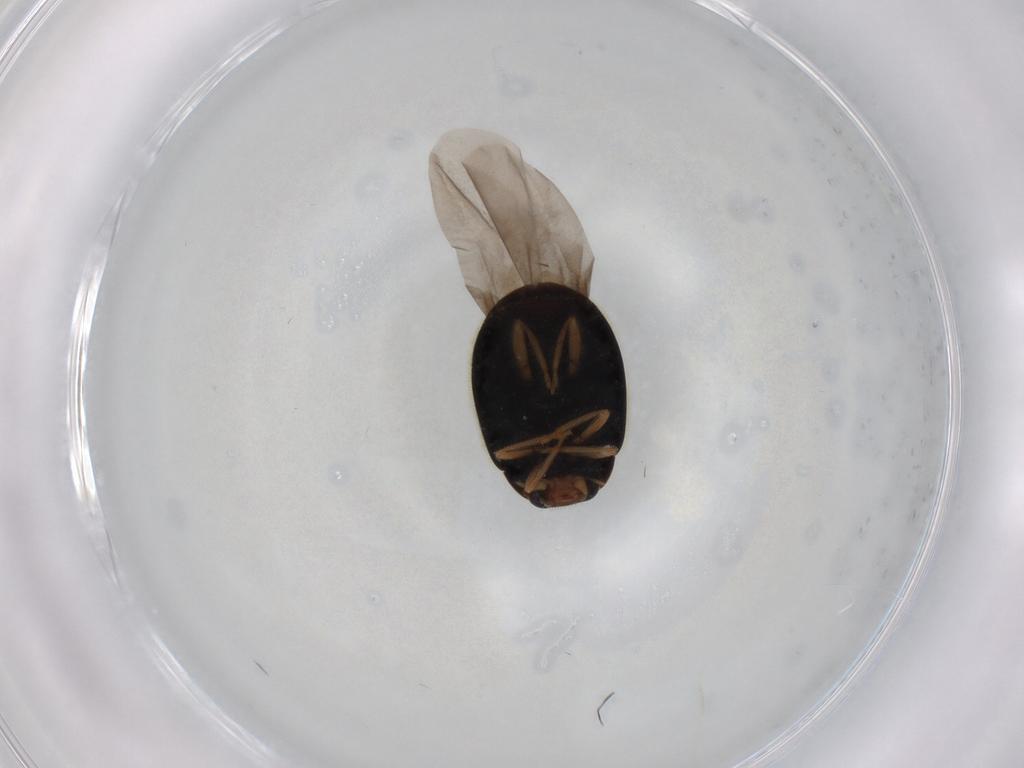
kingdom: Animalia
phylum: Arthropoda
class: Insecta
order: Coleoptera
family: Coccinellidae
